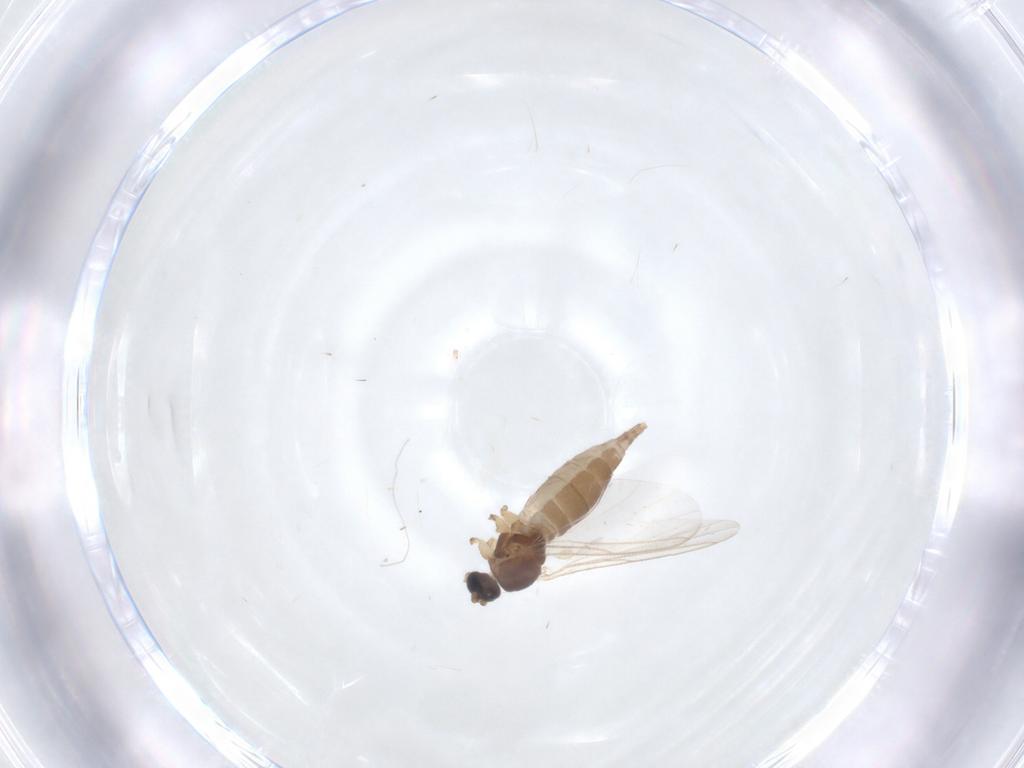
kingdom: Animalia
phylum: Arthropoda
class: Insecta
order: Diptera
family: Sciaridae
